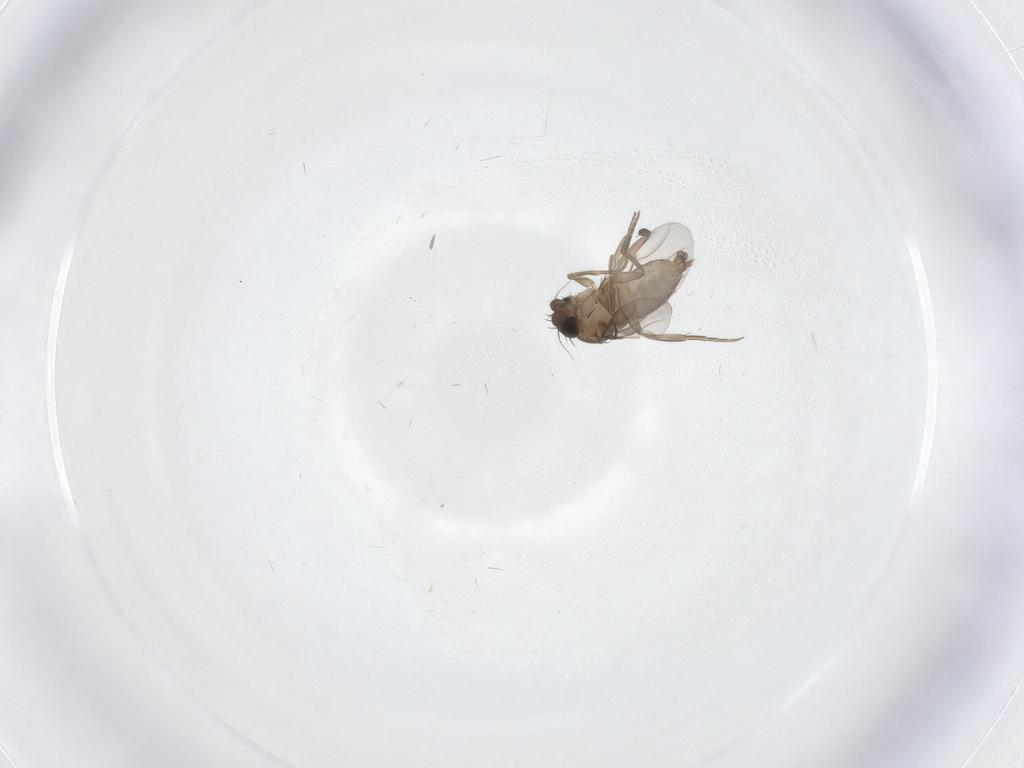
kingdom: Animalia
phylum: Arthropoda
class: Insecta
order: Diptera
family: Phoridae
